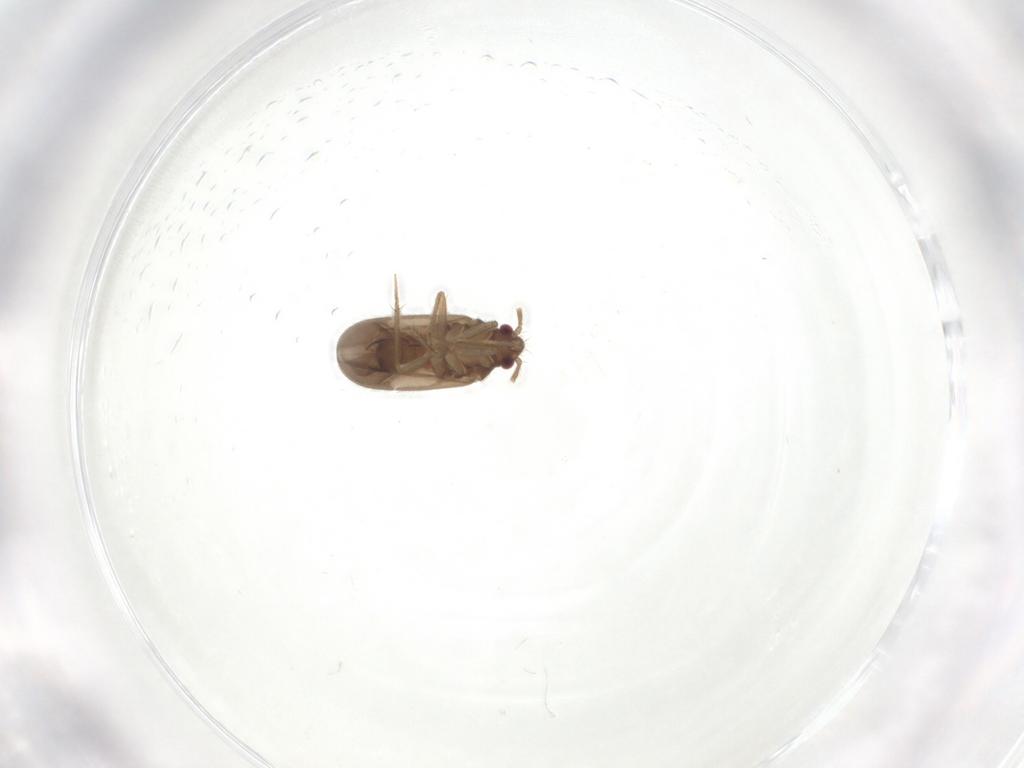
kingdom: Animalia
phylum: Arthropoda
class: Insecta
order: Hemiptera
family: Ceratocombidae
